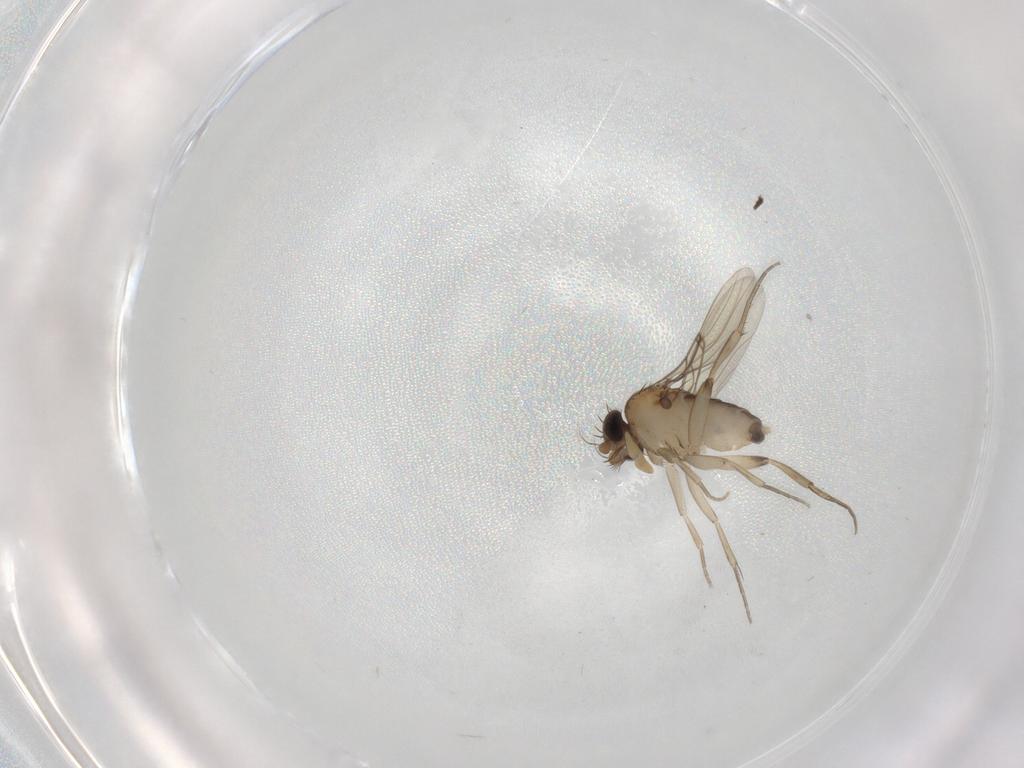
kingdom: Animalia
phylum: Arthropoda
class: Insecta
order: Diptera
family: Phoridae
